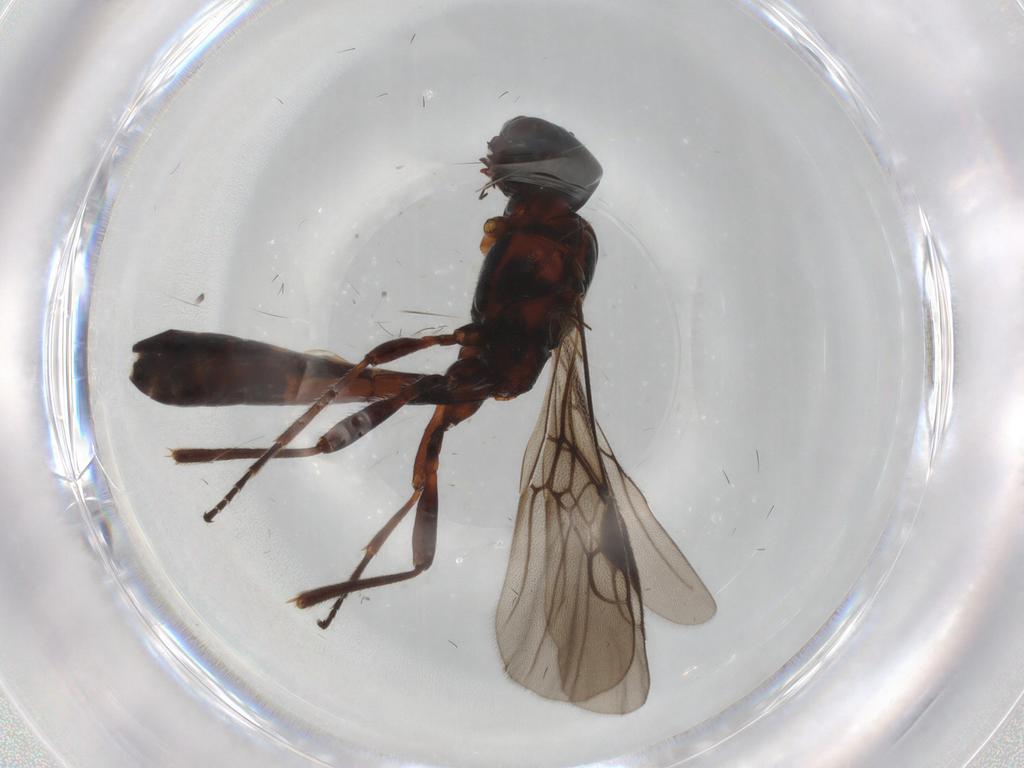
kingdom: Animalia
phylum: Arthropoda
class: Insecta
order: Hymenoptera
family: Braconidae
